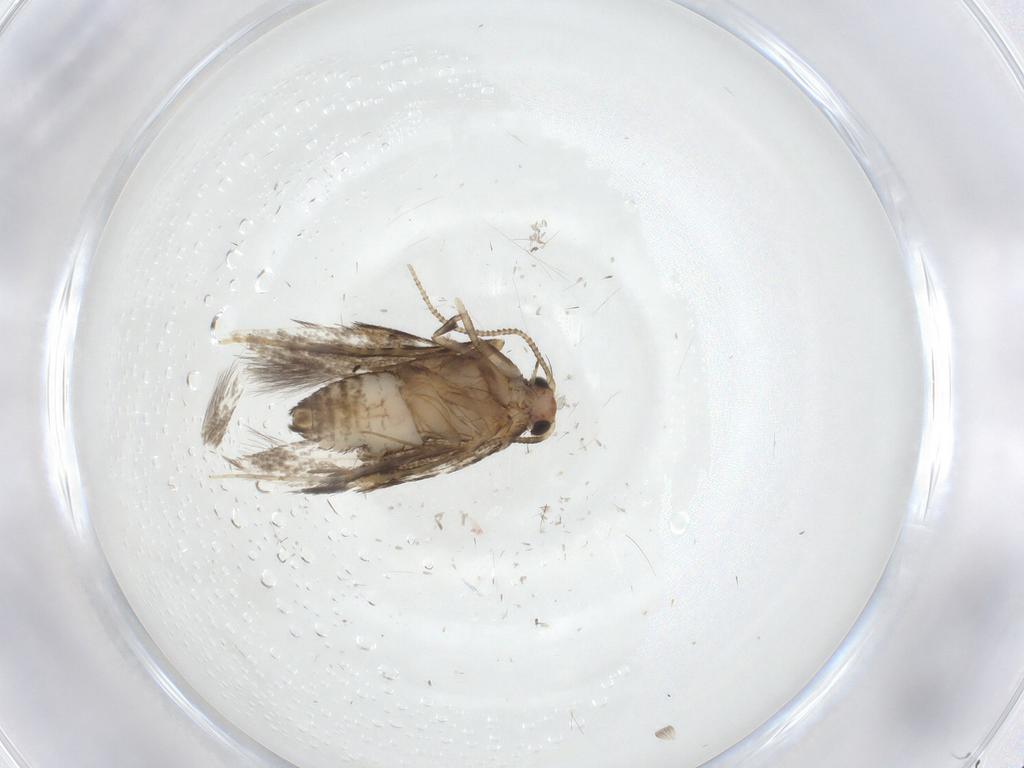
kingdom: Animalia
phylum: Arthropoda
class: Insecta
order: Lepidoptera
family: Tineidae
